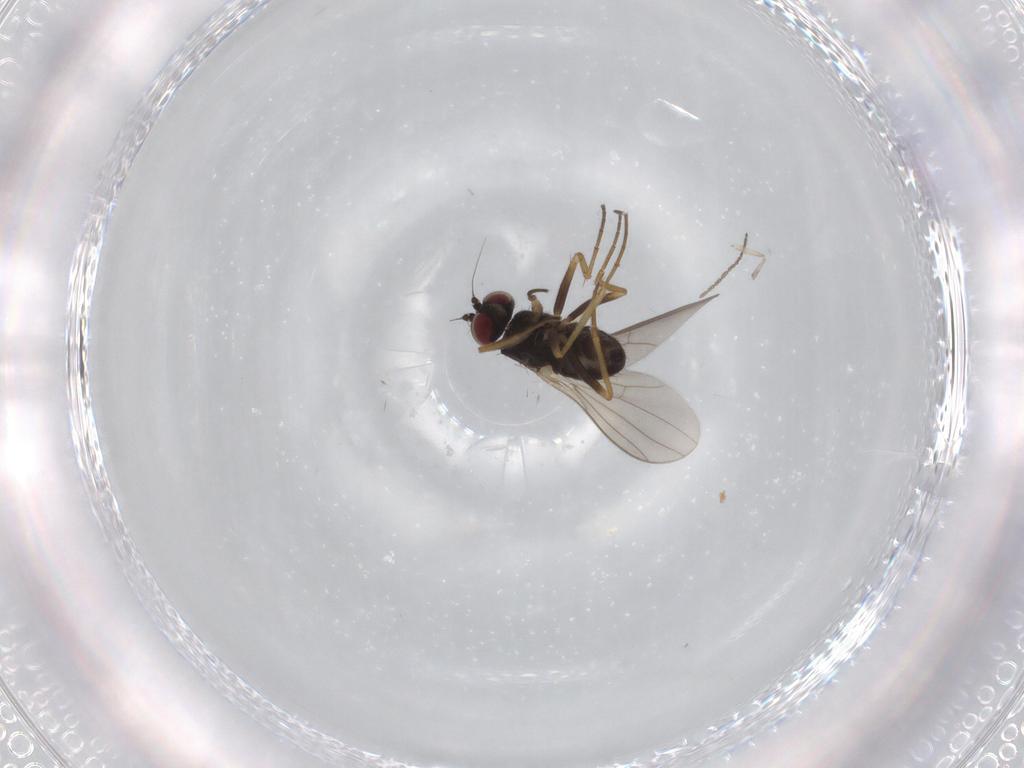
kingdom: Animalia
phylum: Arthropoda
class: Insecta
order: Diptera
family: Cecidomyiidae
